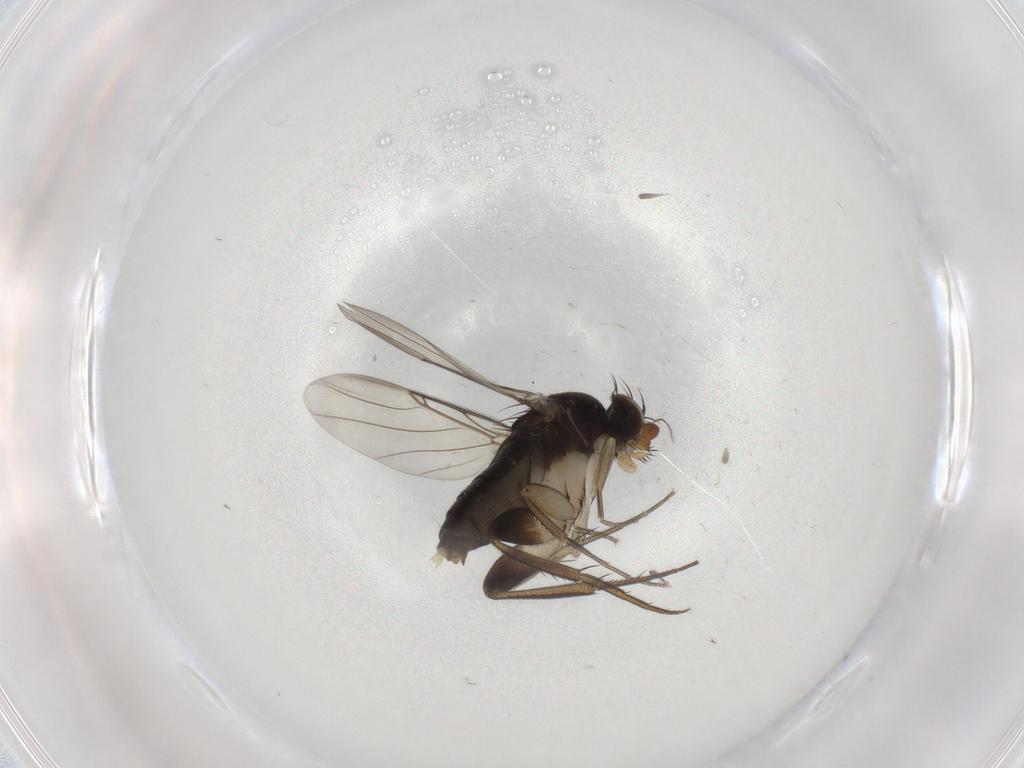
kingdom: Animalia
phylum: Arthropoda
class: Insecta
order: Diptera
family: Phoridae
